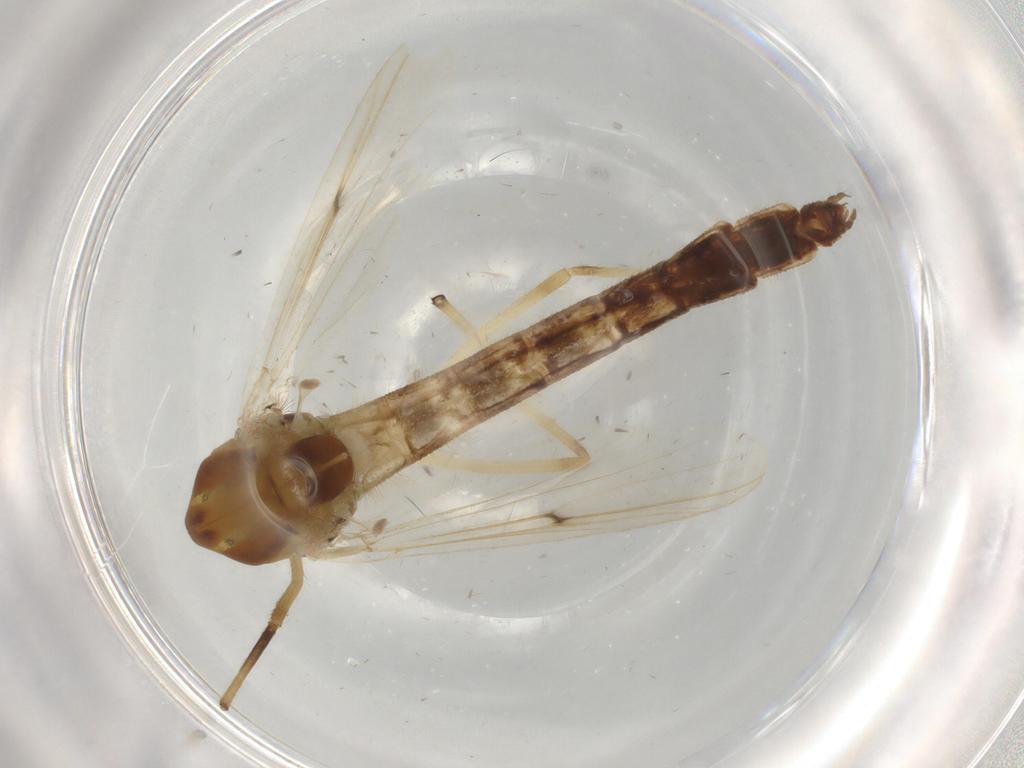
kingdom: Animalia
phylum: Arthropoda
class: Insecta
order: Diptera
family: Chironomidae
